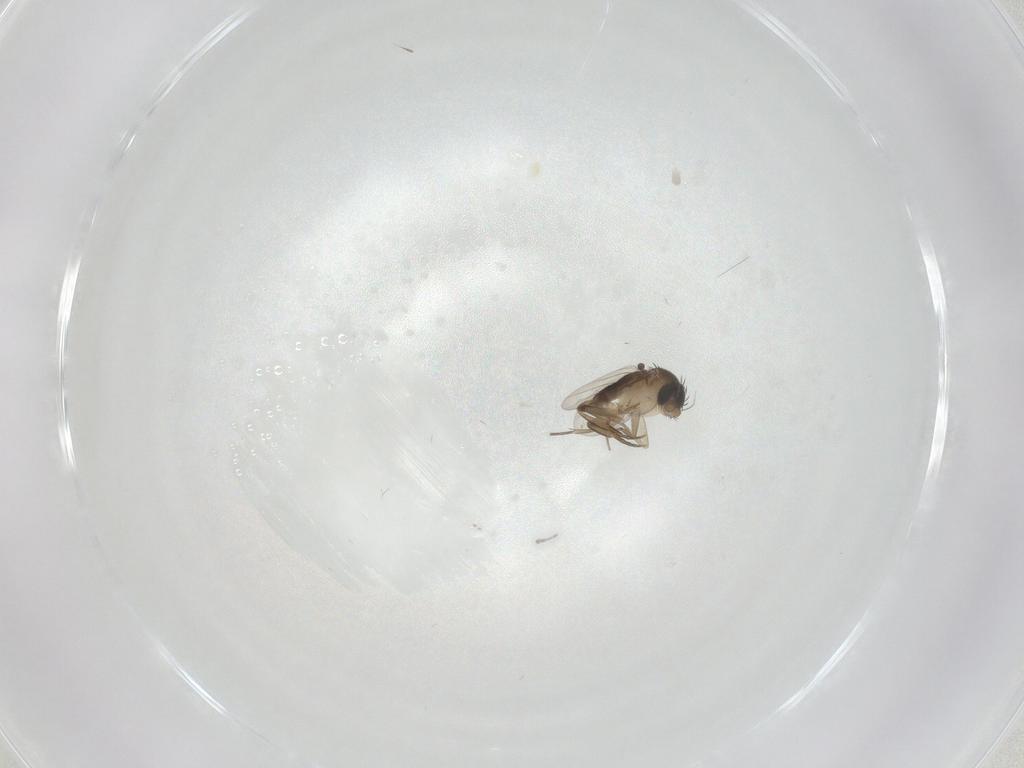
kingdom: Animalia
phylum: Arthropoda
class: Insecta
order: Diptera
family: Phoridae
